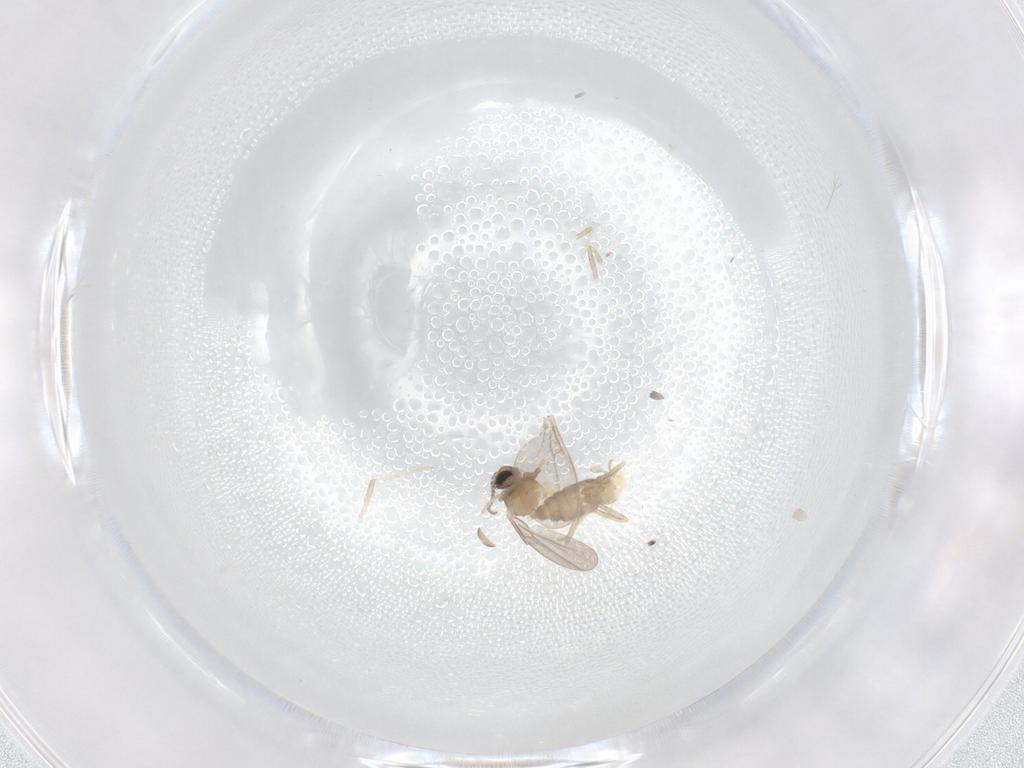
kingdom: Animalia
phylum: Arthropoda
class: Insecta
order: Diptera
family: Cecidomyiidae
